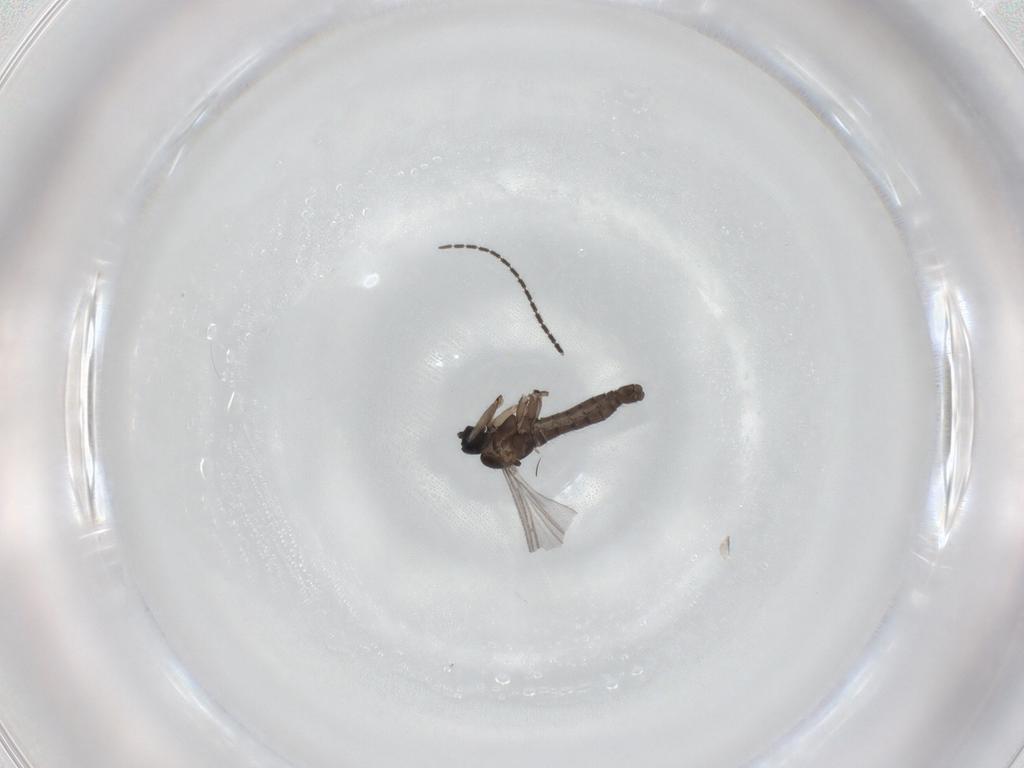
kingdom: Animalia
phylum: Arthropoda
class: Insecta
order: Diptera
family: Sciaridae
